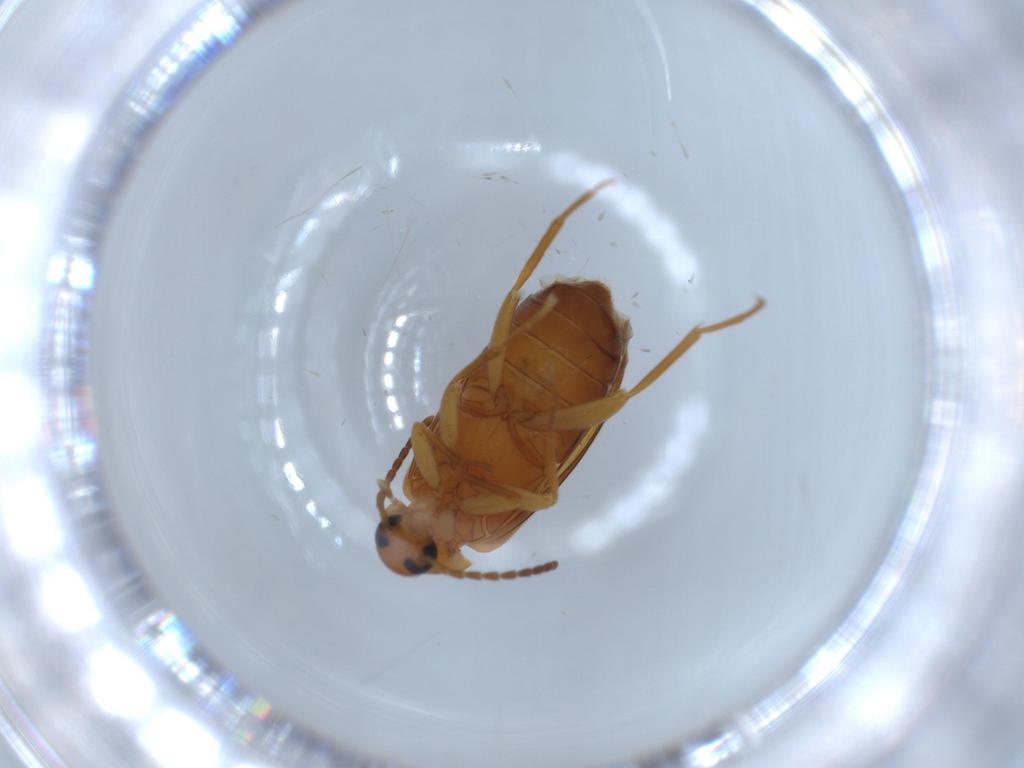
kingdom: Animalia
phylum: Arthropoda
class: Insecta
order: Coleoptera
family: Scraptiidae
